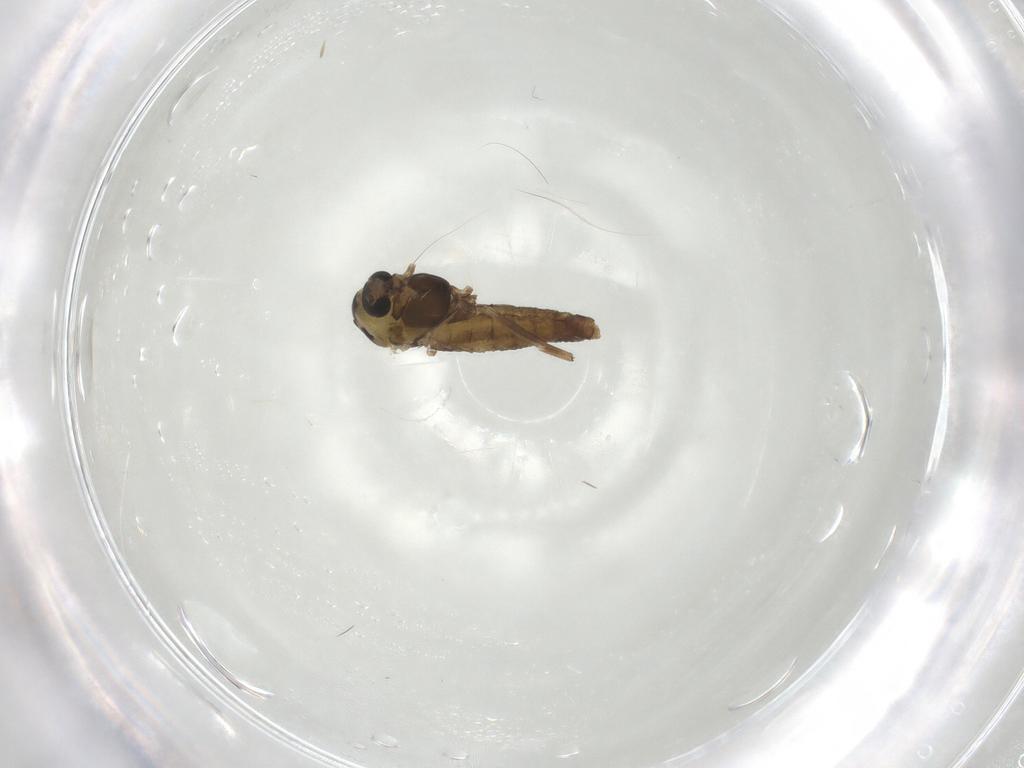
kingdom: Animalia
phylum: Arthropoda
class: Insecta
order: Diptera
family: Chironomidae
